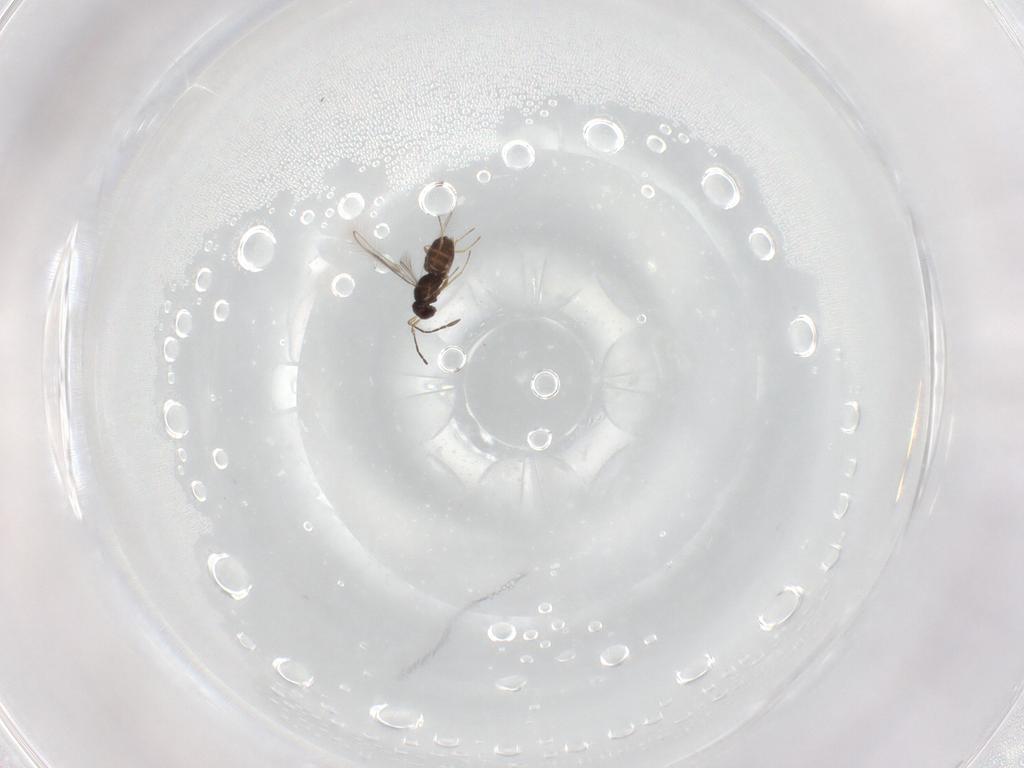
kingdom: Animalia
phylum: Arthropoda
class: Insecta
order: Hymenoptera
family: Mymaridae
